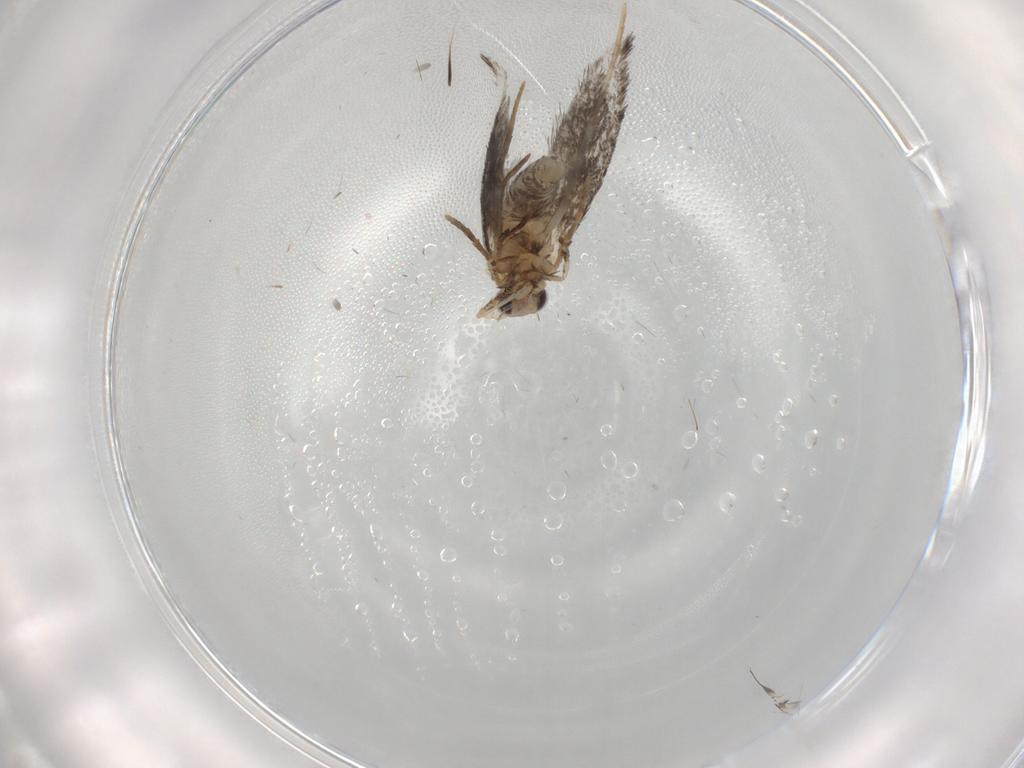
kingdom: Animalia
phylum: Arthropoda
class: Insecta
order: Lepidoptera
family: Tineidae
